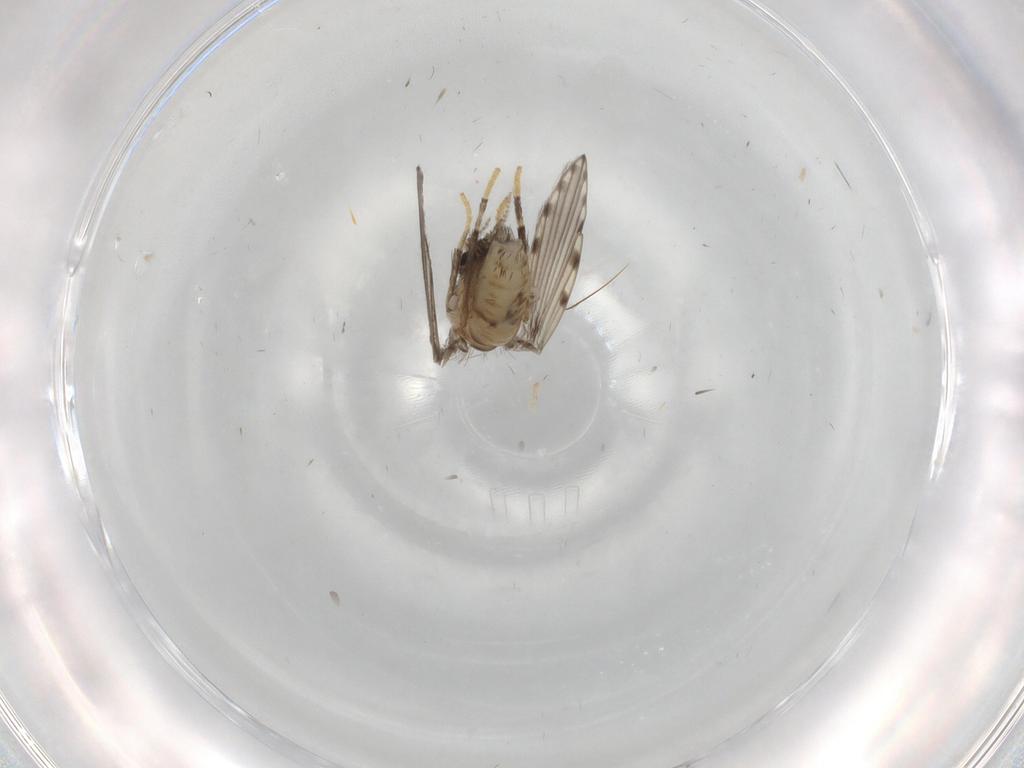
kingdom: Animalia
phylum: Arthropoda
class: Insecta
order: Diptera
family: Psychodidae
